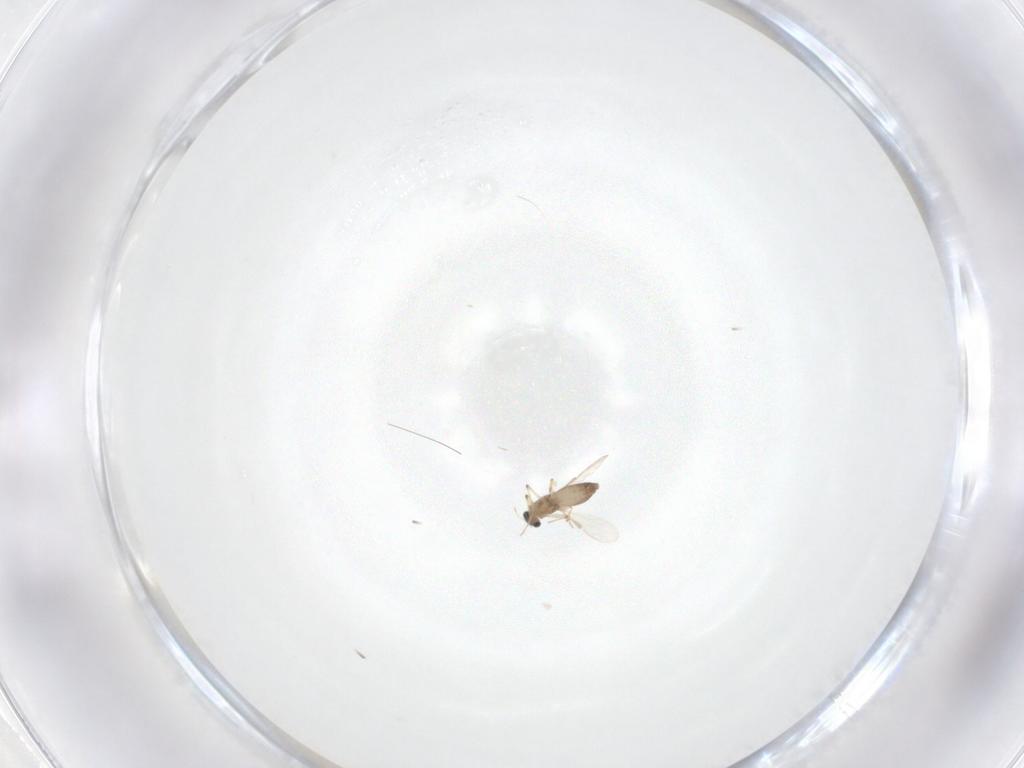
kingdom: Animalia
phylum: Arthropoda
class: Insecta
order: Diptera
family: Chironomidae
